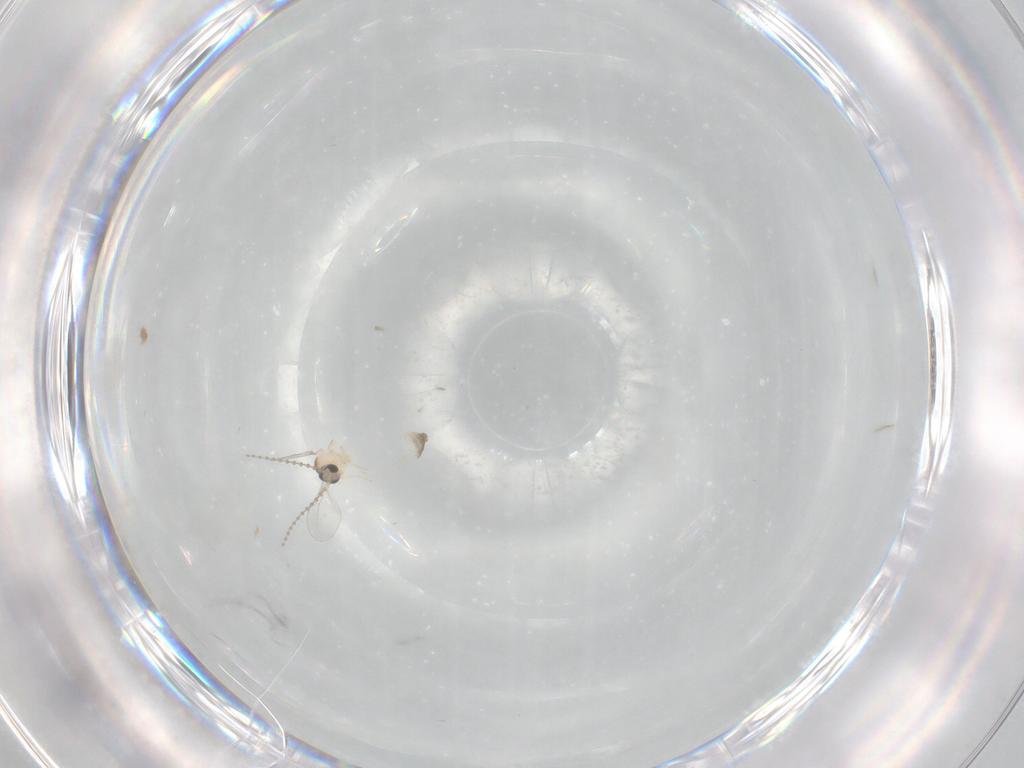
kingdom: Animalia
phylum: Arthropoda
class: Insecta
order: Diptera
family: Cecidomyiidae
